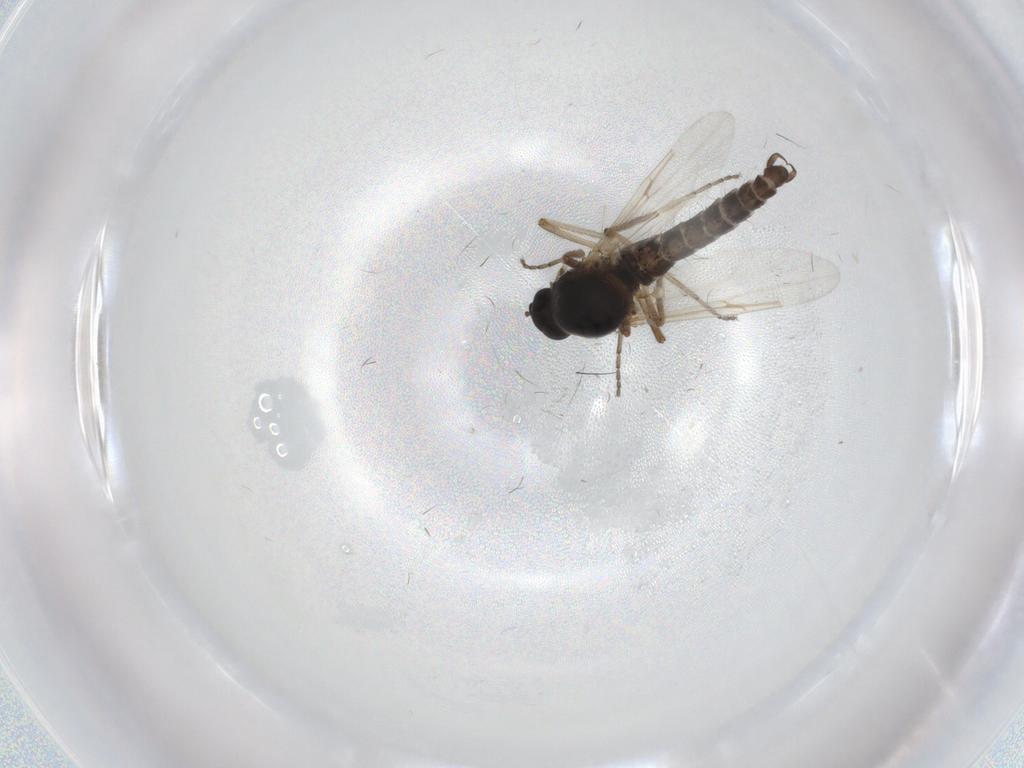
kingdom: Animalia
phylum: Arthropoda
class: Insecta
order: Diptera
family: Ceratopogonidae
